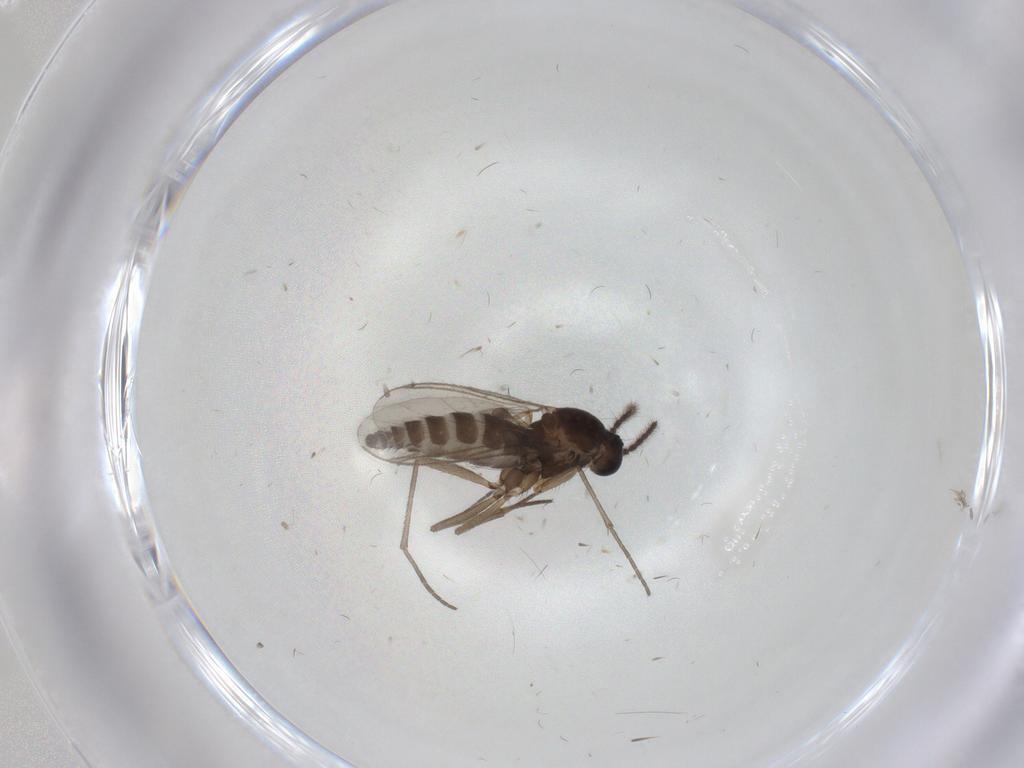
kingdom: Animalia
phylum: Arthropoda
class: Insecta
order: Diptera
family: Sciaridae
